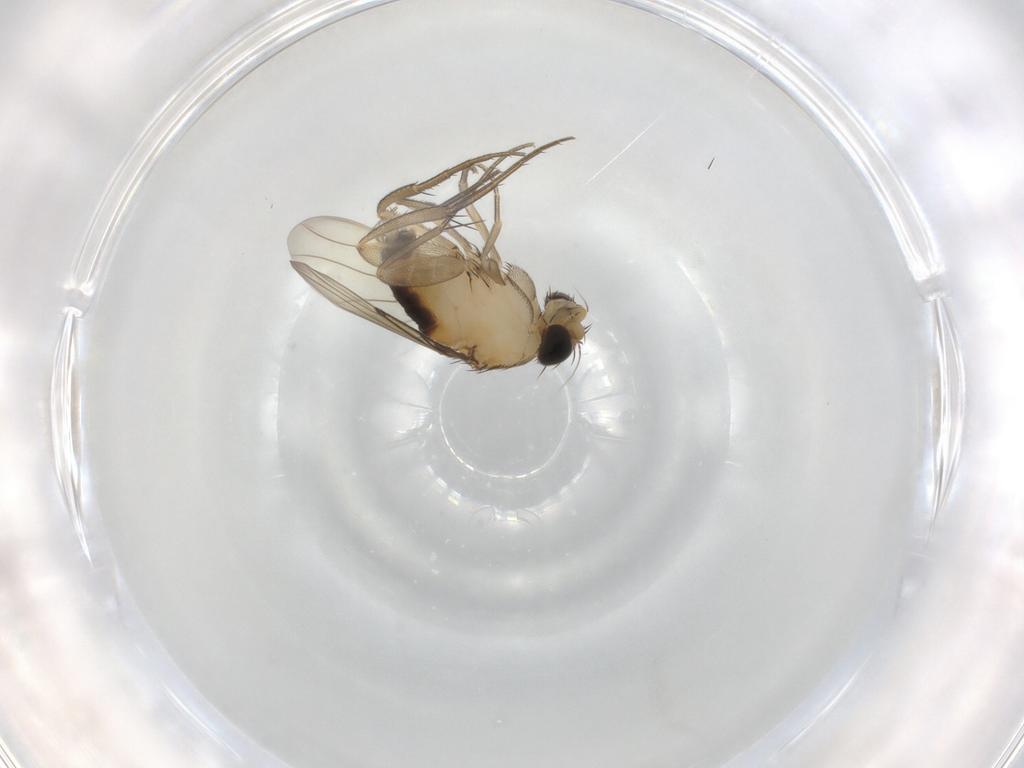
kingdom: Animalia
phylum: Arthropoda
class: Insecta
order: Diptera
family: Phoridae
